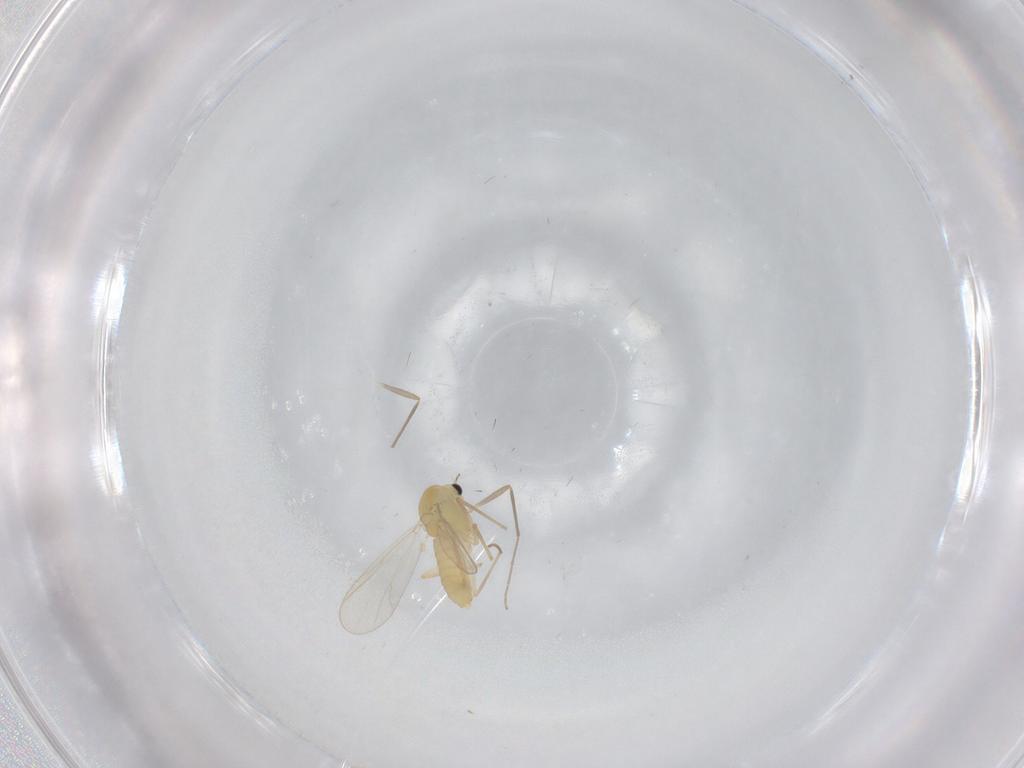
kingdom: Animalia
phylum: Arthropoda
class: Insecta
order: Diptera
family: Chironomidae
